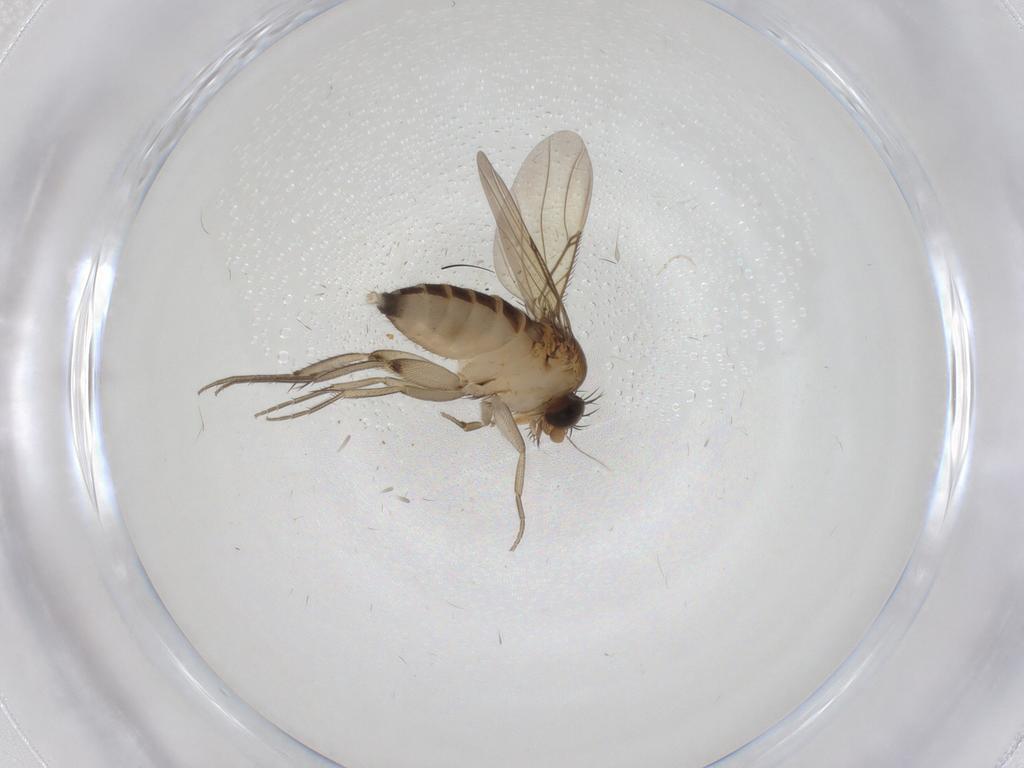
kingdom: Animalia
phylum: Arthropoda
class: Insecta
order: Diptera
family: Phoridae
